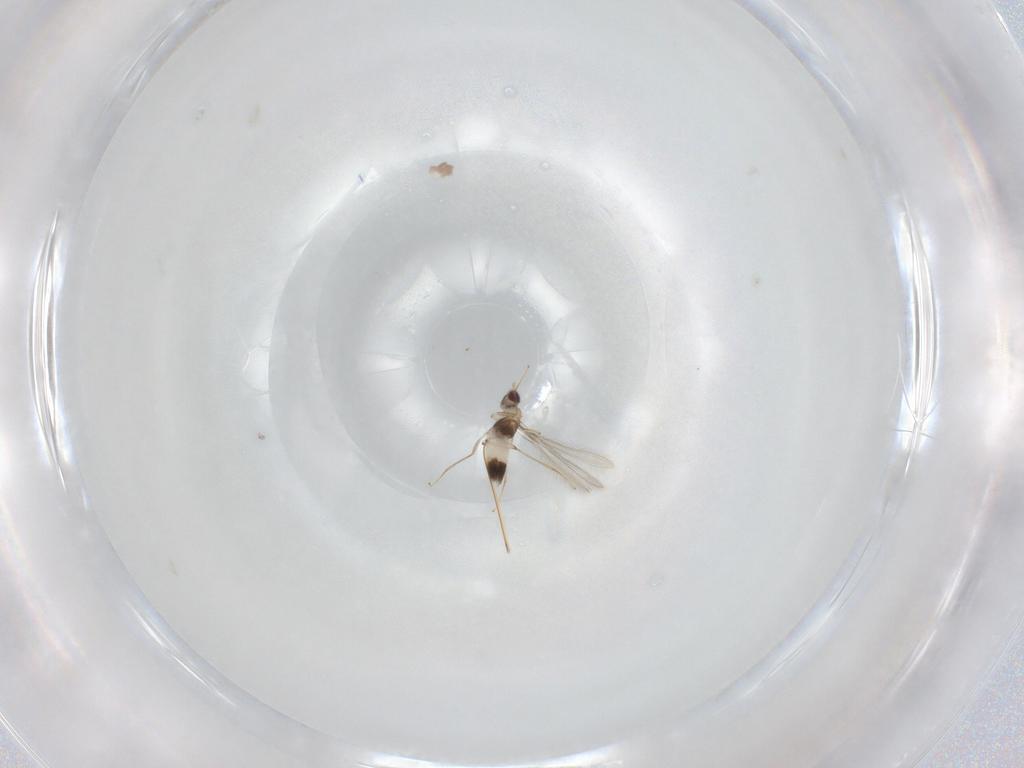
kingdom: Animalia
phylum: Arthropoda
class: Insecta
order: Hymenoptera
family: Mymaridae
